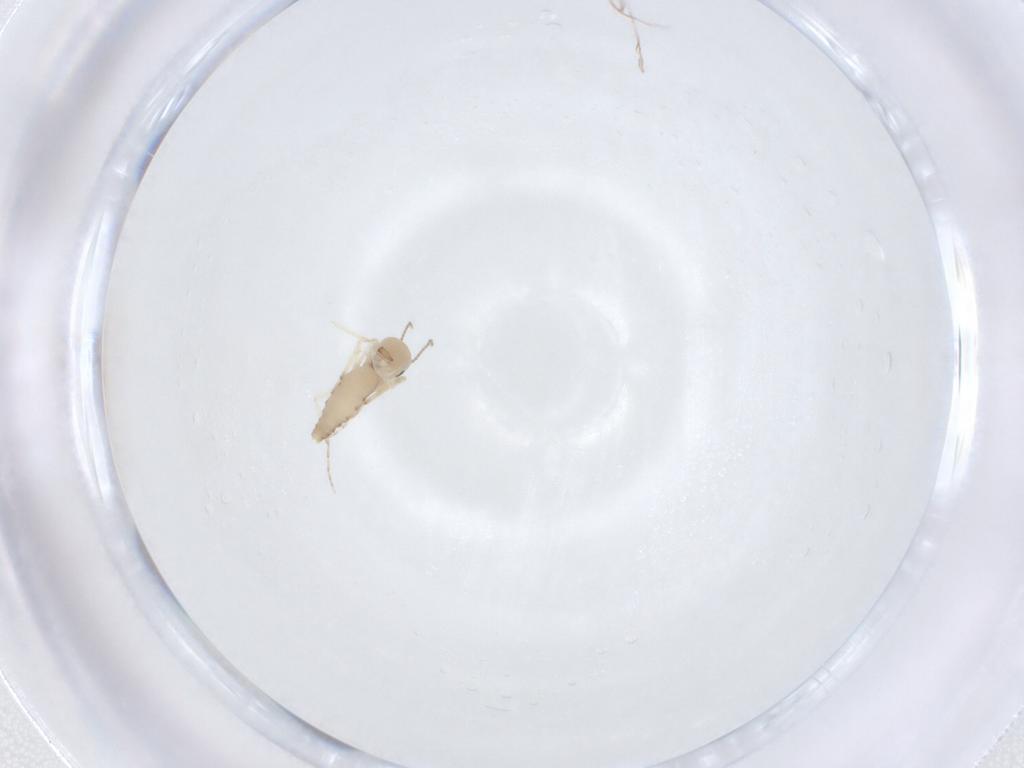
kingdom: Animalia
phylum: Arthropoda
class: Insecta
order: Diptera
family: Ceratopogonidae
